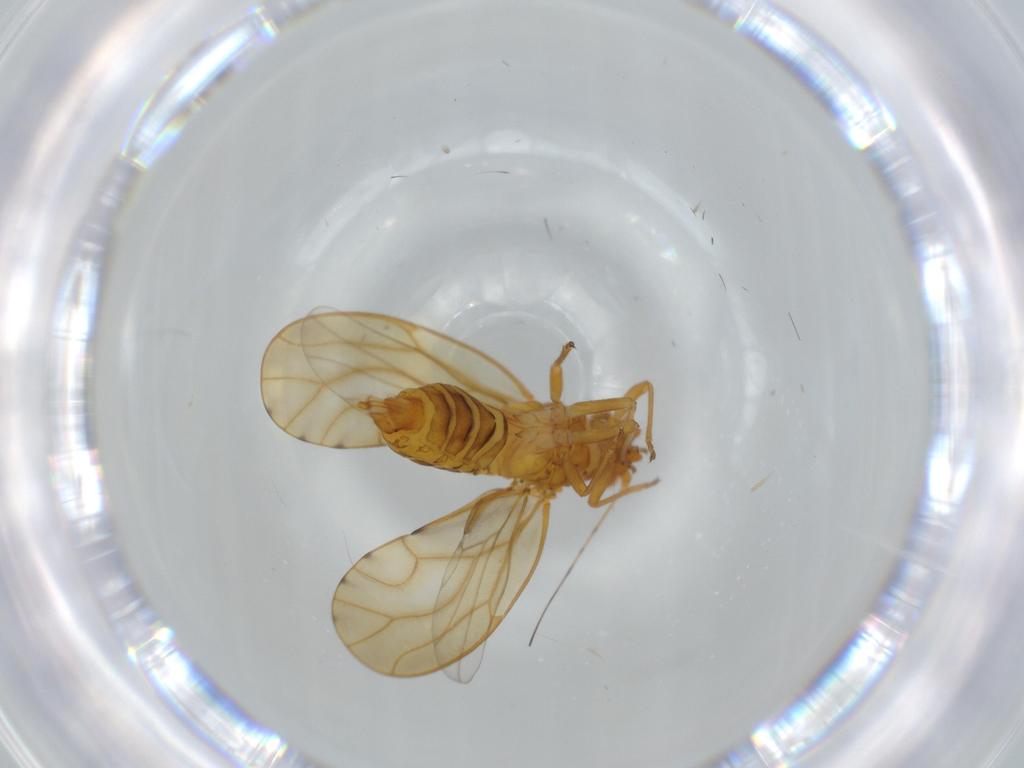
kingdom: Animalia
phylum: Arthropoda
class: Insecta
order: Hemiptera
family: Psylloidea_incertae_sedis
